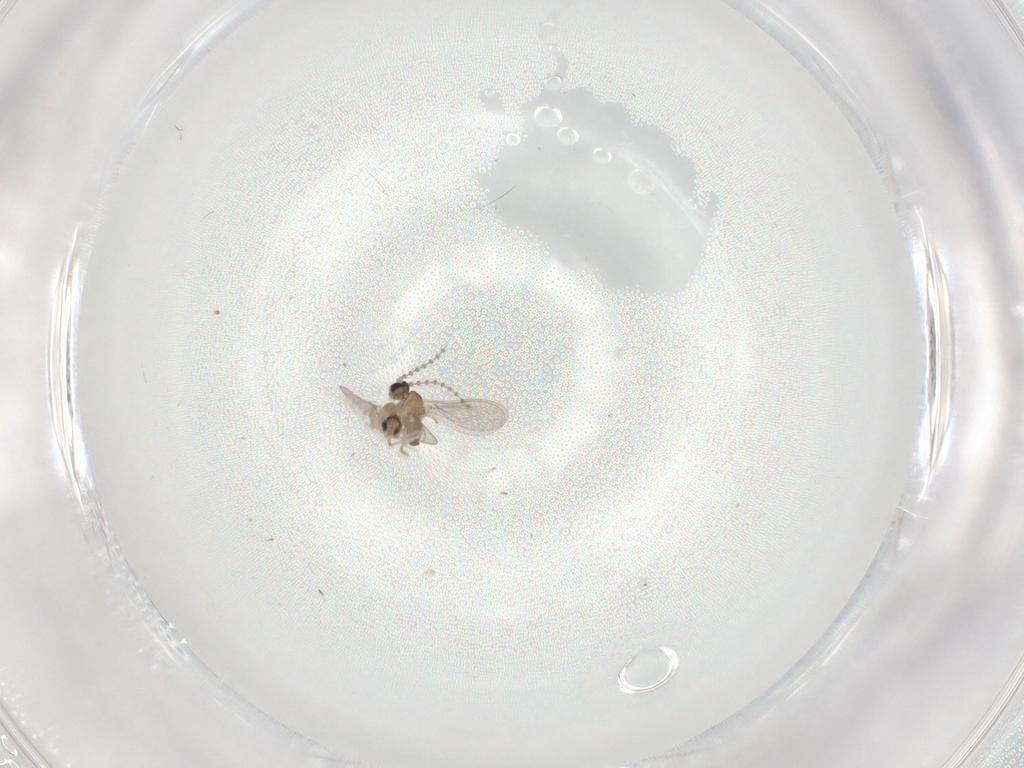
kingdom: Animalia
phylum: Arthropoda
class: Insecta
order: Diptera
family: Cecidomyiidae
